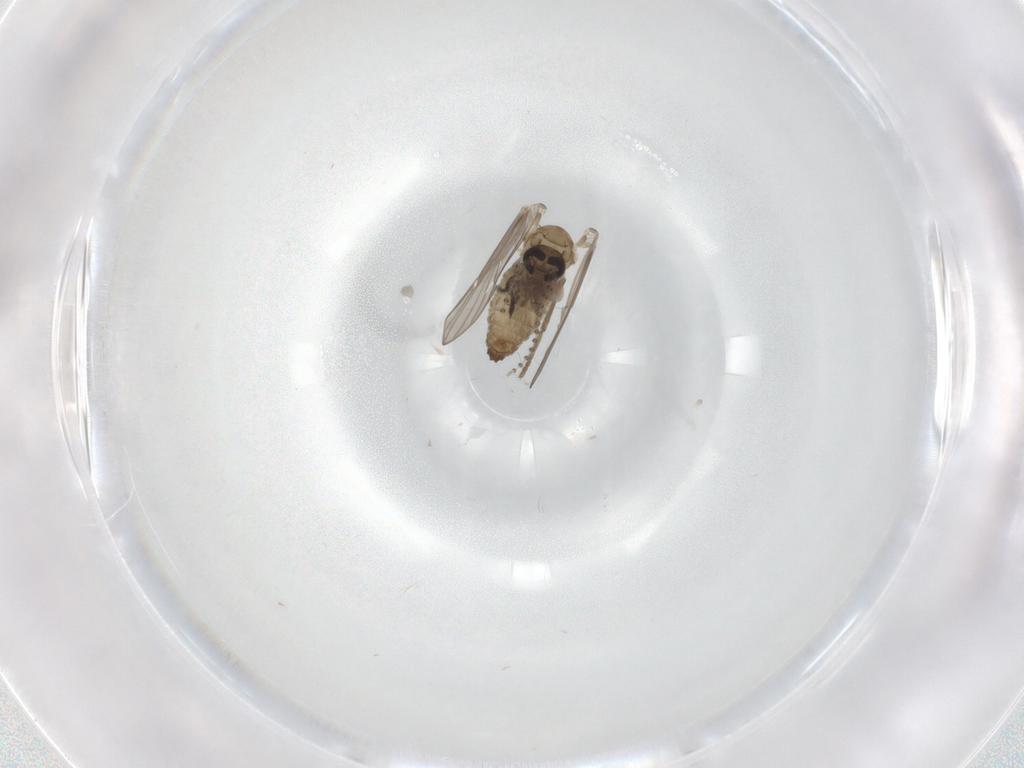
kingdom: Animalia
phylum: Arthropoda
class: Insecta
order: Diptera
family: Psychodidae
